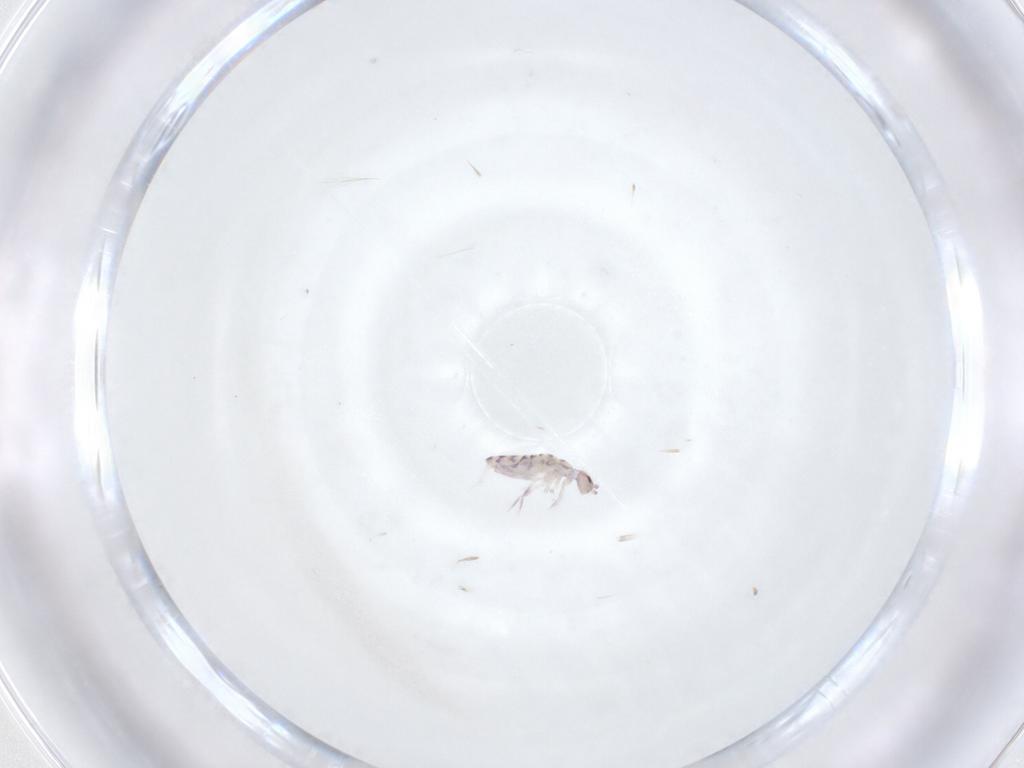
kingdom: Animalia
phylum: Arthropoda
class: Collembola
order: Entomobryomorpha
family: Entomobryidae
